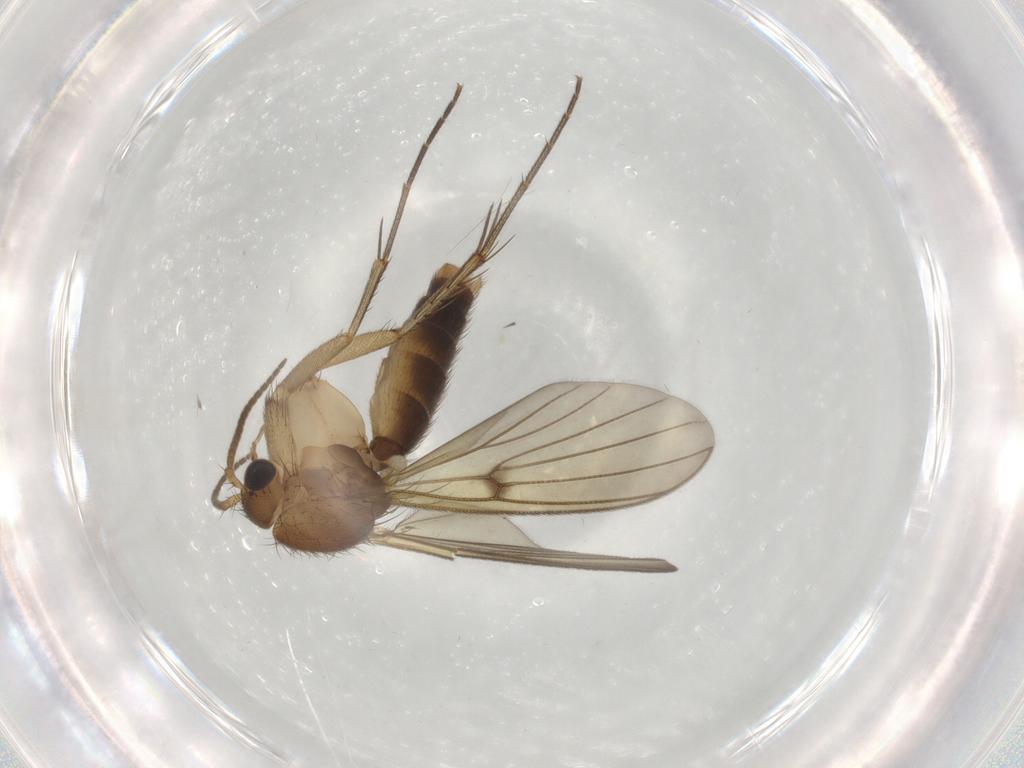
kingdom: Animalia
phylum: Arthropoda
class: Insecta
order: Diptera
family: Chironomidae
